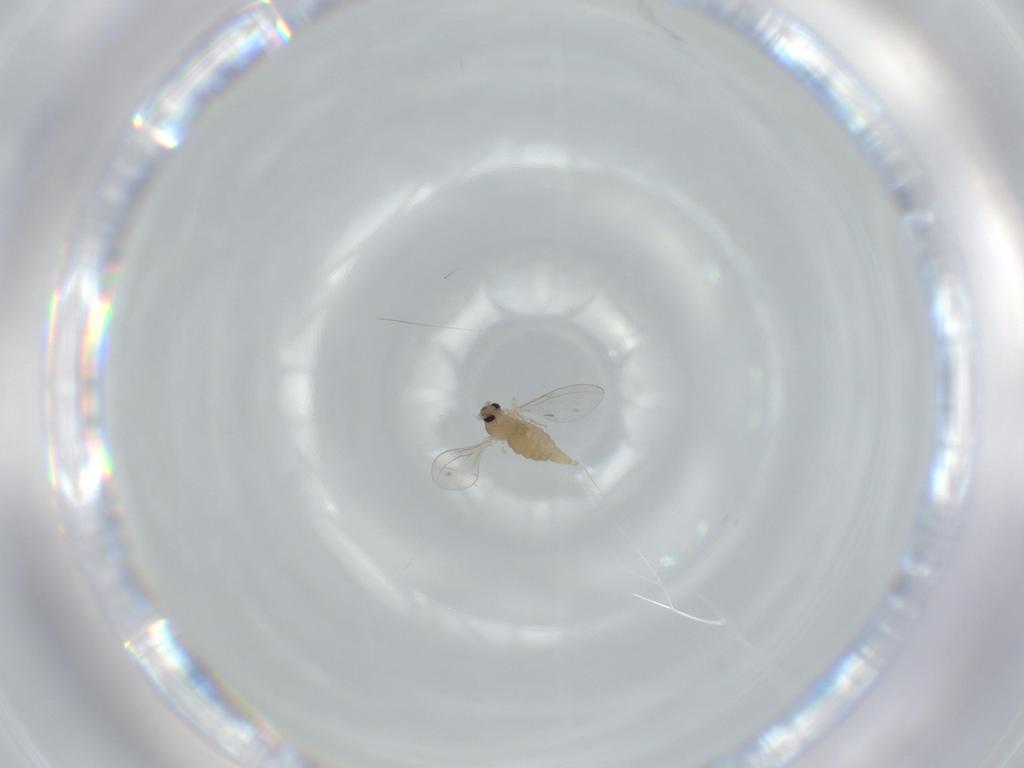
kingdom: Animalia
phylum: Arthropoda
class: Insecta
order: Diptera
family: Cecidomyiidae
